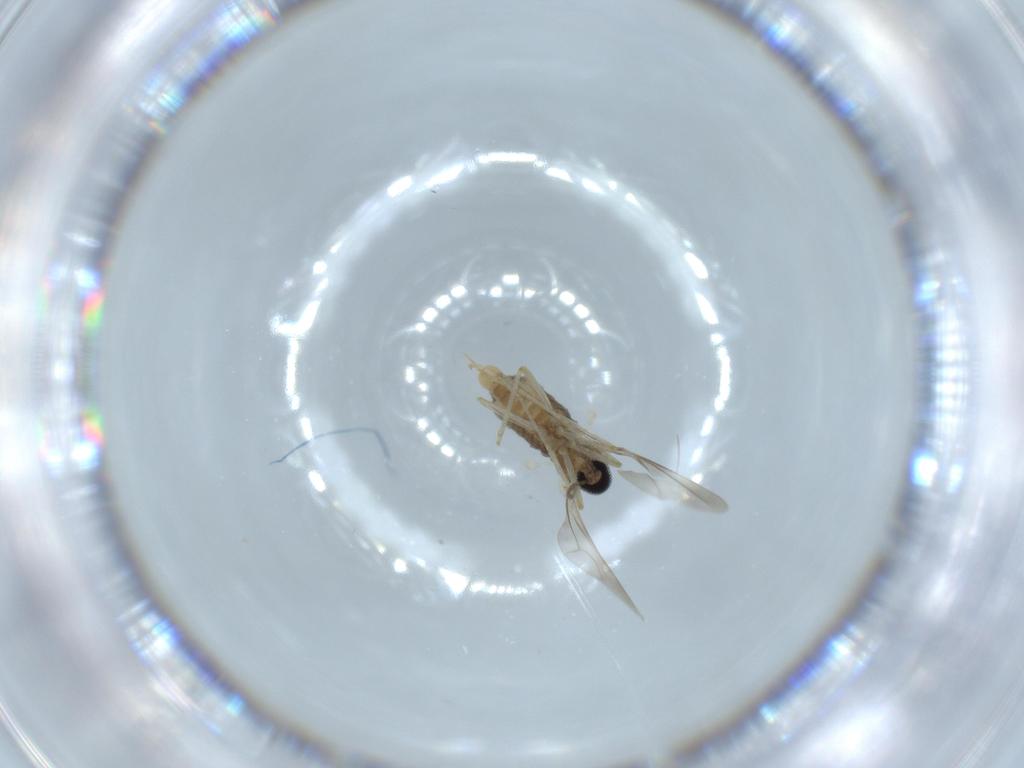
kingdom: Animalia
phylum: Arthropoda
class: Insecta
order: Diptera
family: Cecidomyiidae
